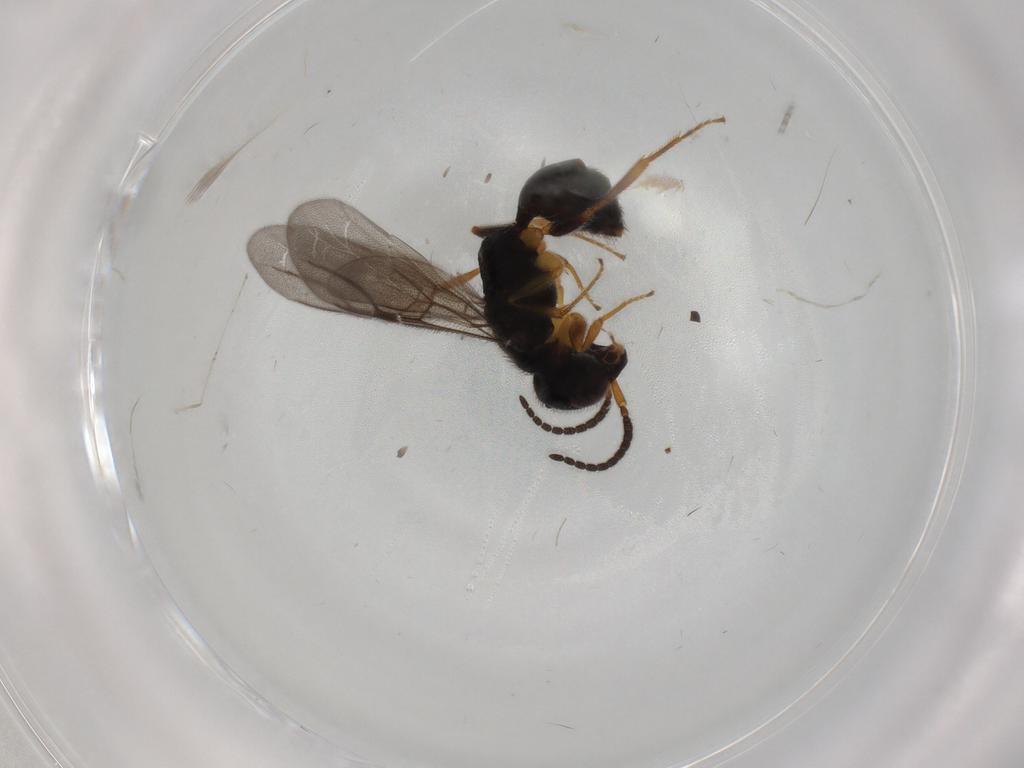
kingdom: Animalia
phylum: Arthropoda
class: Insecta
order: Hymenoptera
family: Bethylidae
